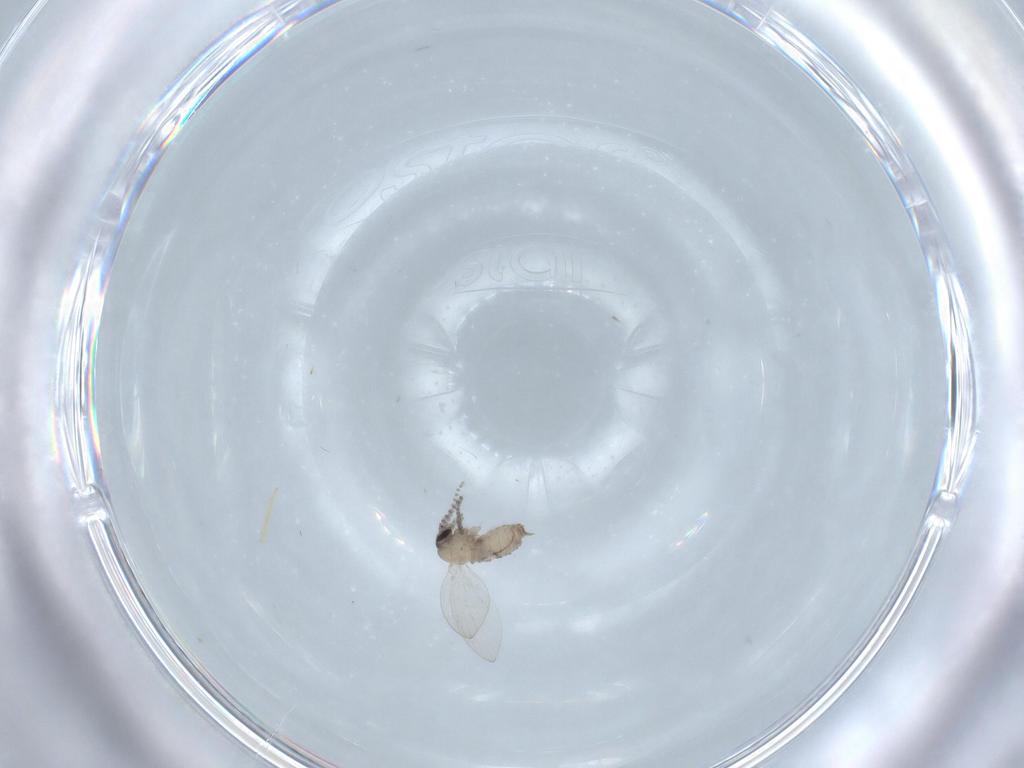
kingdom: Animalia
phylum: Arthropoda
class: Insecta
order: Diptera
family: Psychodidae
